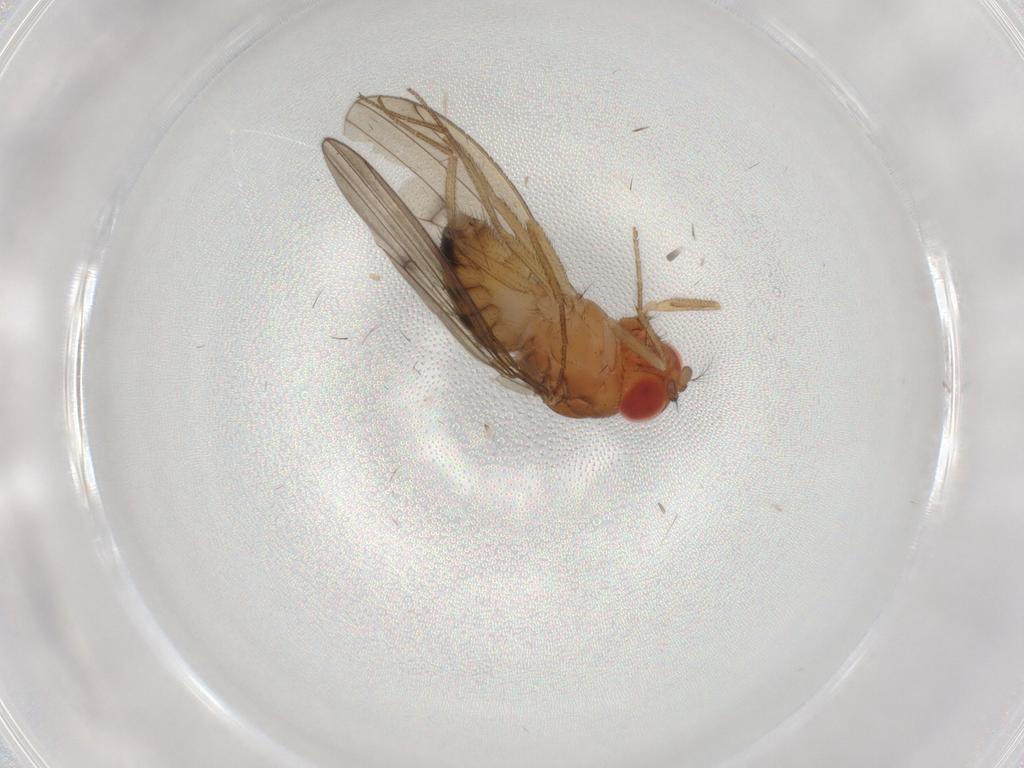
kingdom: Animalia
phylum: Arthropoda
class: Insecta
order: Diptera
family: Drosophilidae
